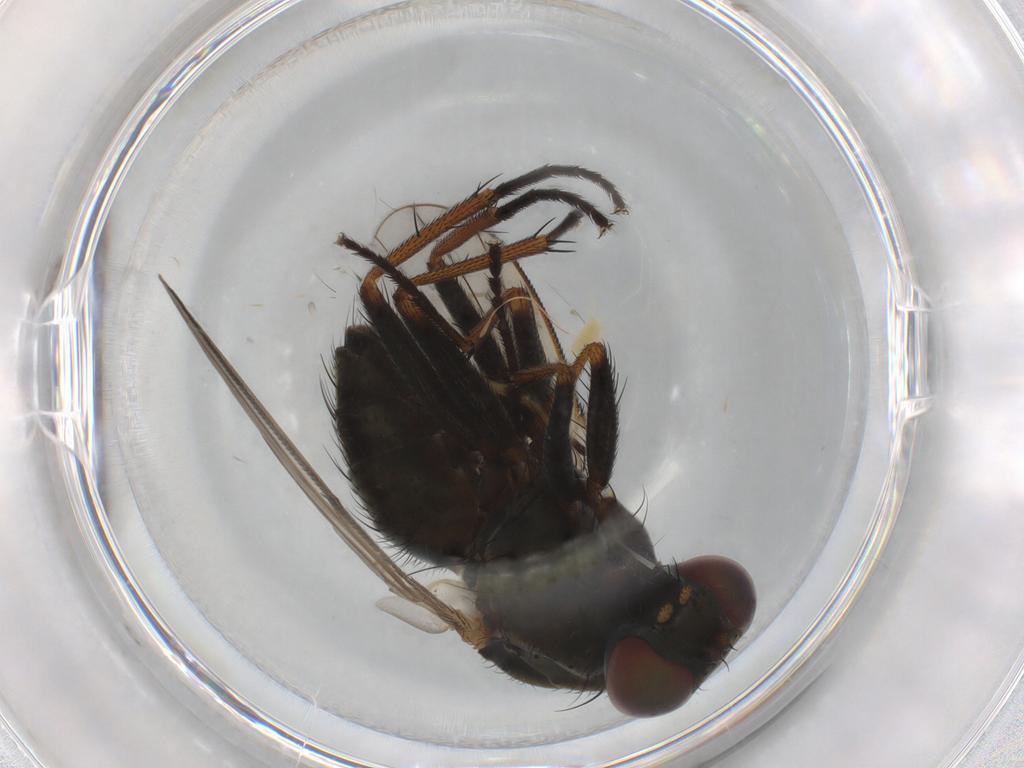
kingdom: Animalia
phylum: Arthropoda
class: Insecta
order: Diptera
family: Muscidae
